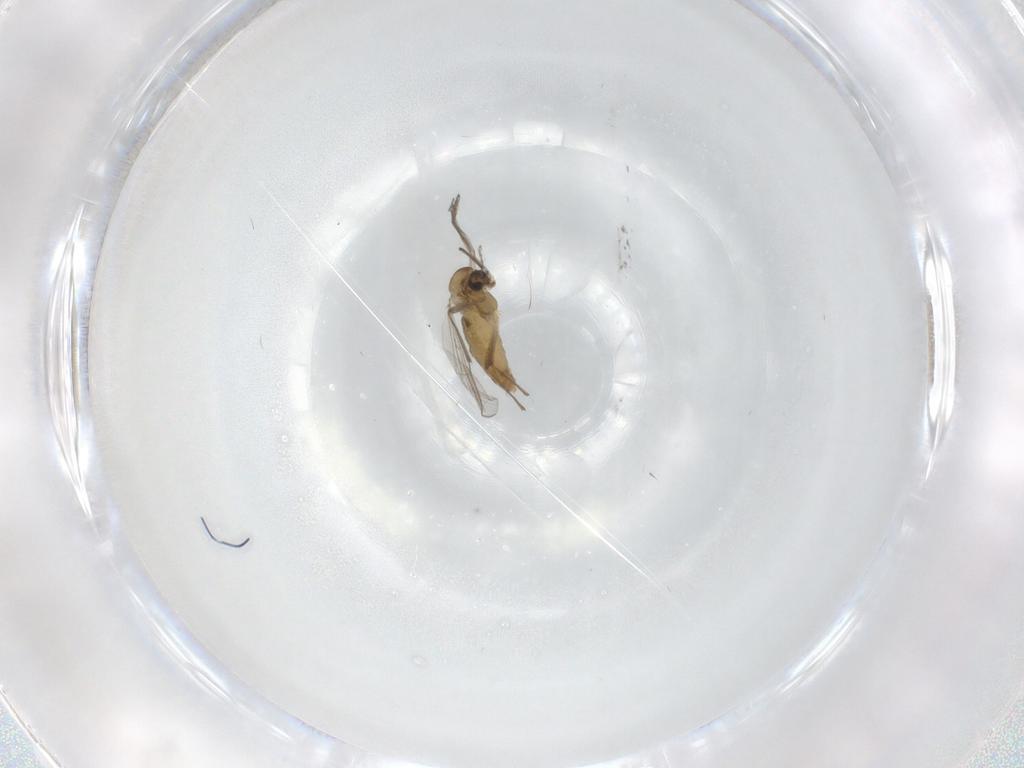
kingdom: Animalia
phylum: Arthropoda
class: Insecta
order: Diptera
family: Chironomidae
